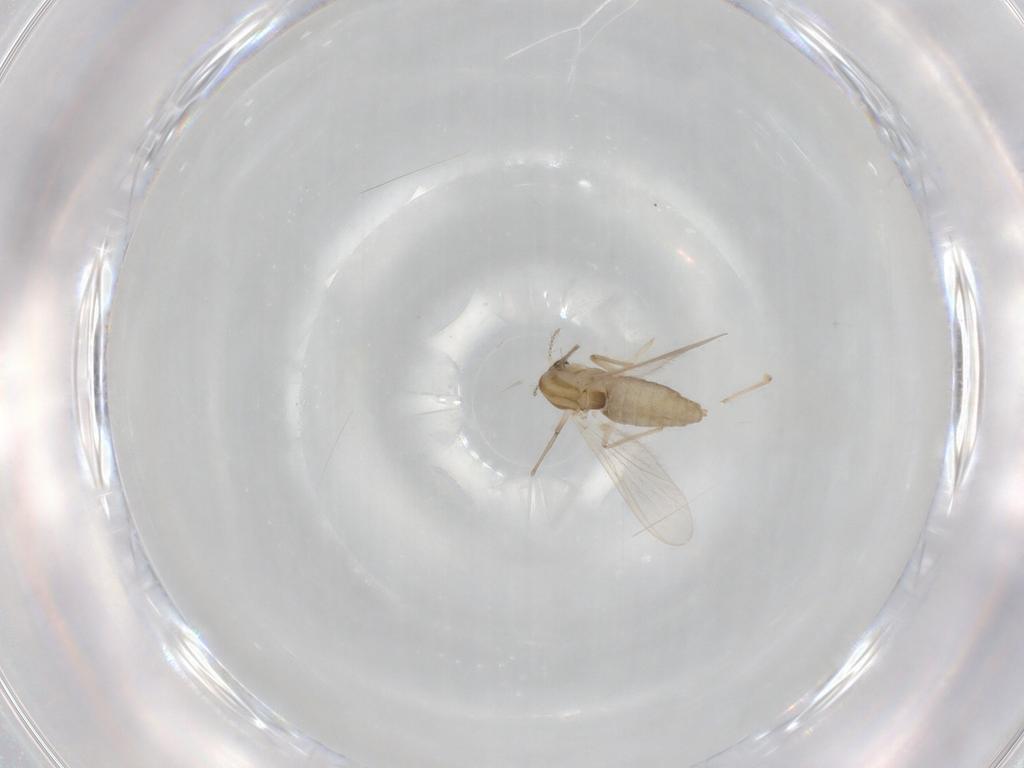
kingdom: Animalia
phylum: Arthropoda
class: Insecta
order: Diptera
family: Chironomidae
